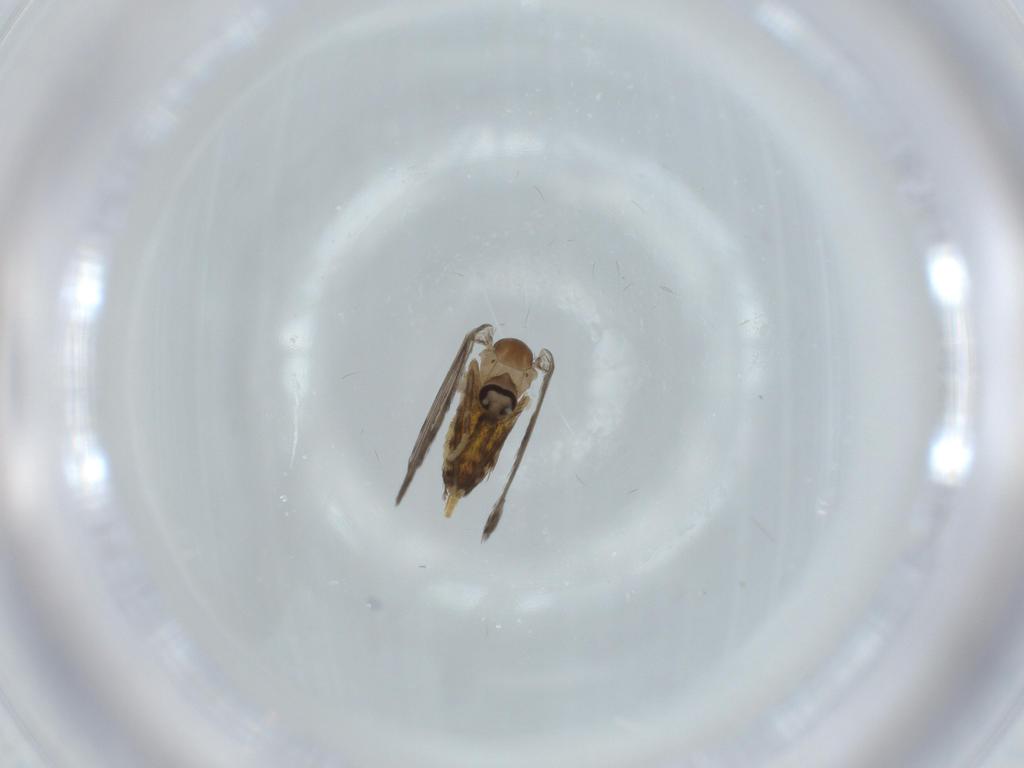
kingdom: Animalia
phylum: Arthropoda
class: Insecta
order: Diptera
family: Psychodidae
